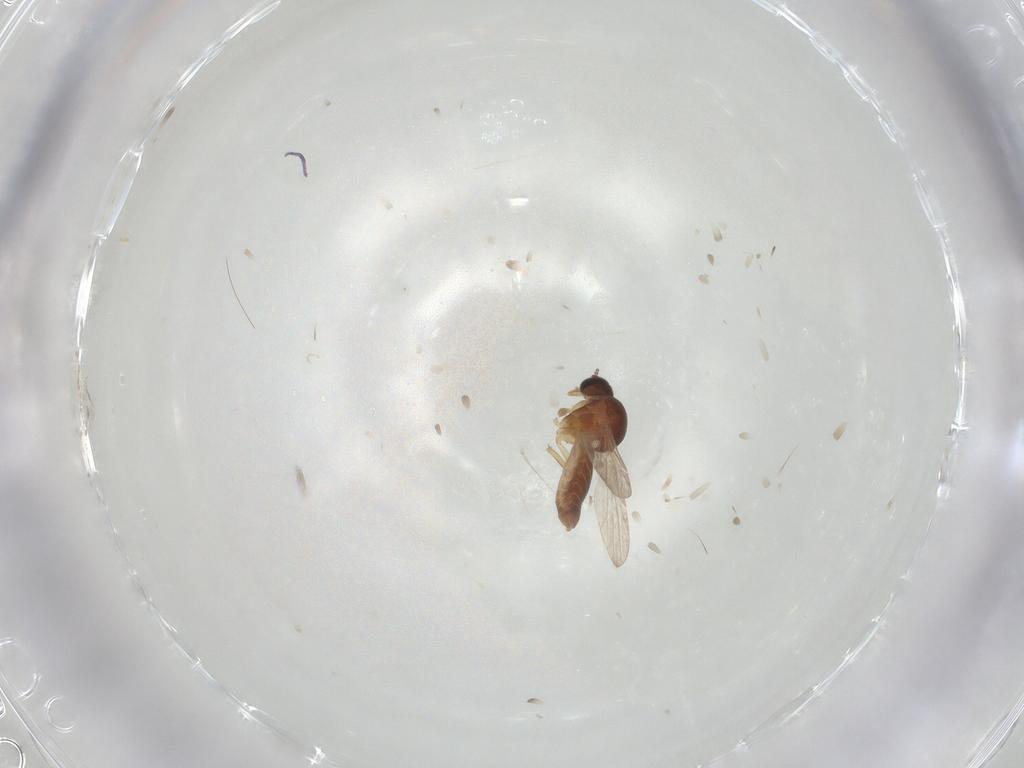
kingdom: Animalia
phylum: Arthropoda
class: Insecta
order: Diptera
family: Ceratopogonidae
